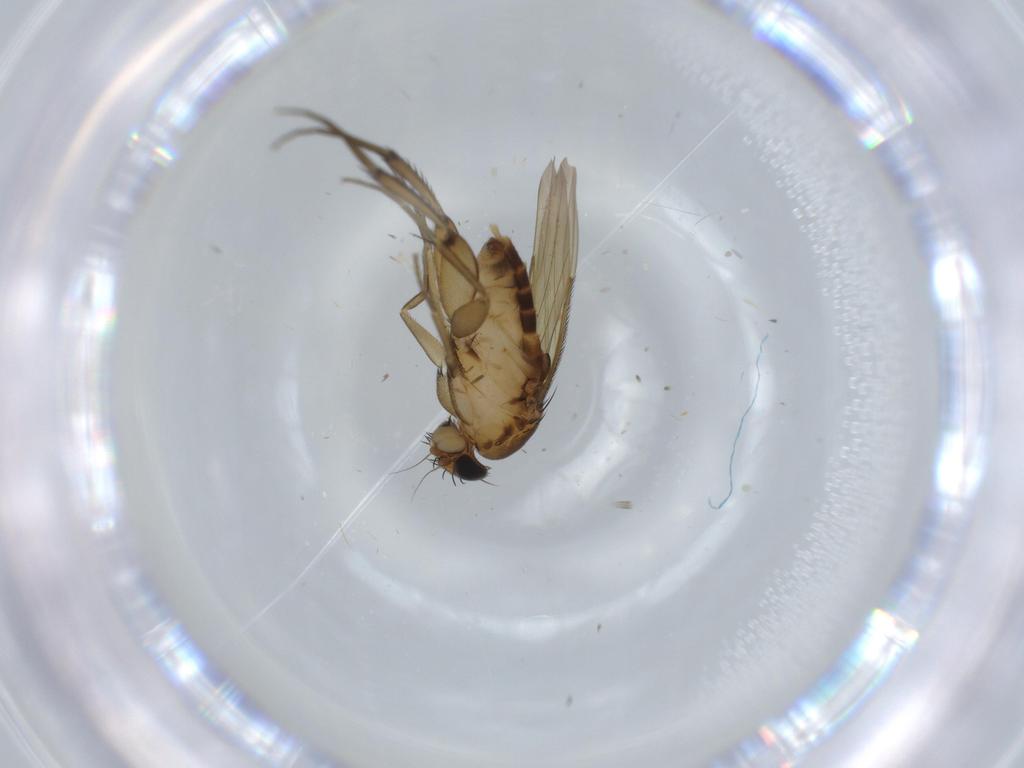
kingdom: Animalia
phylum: Arthropoda
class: Insecta
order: Diptera
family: Phoridae
